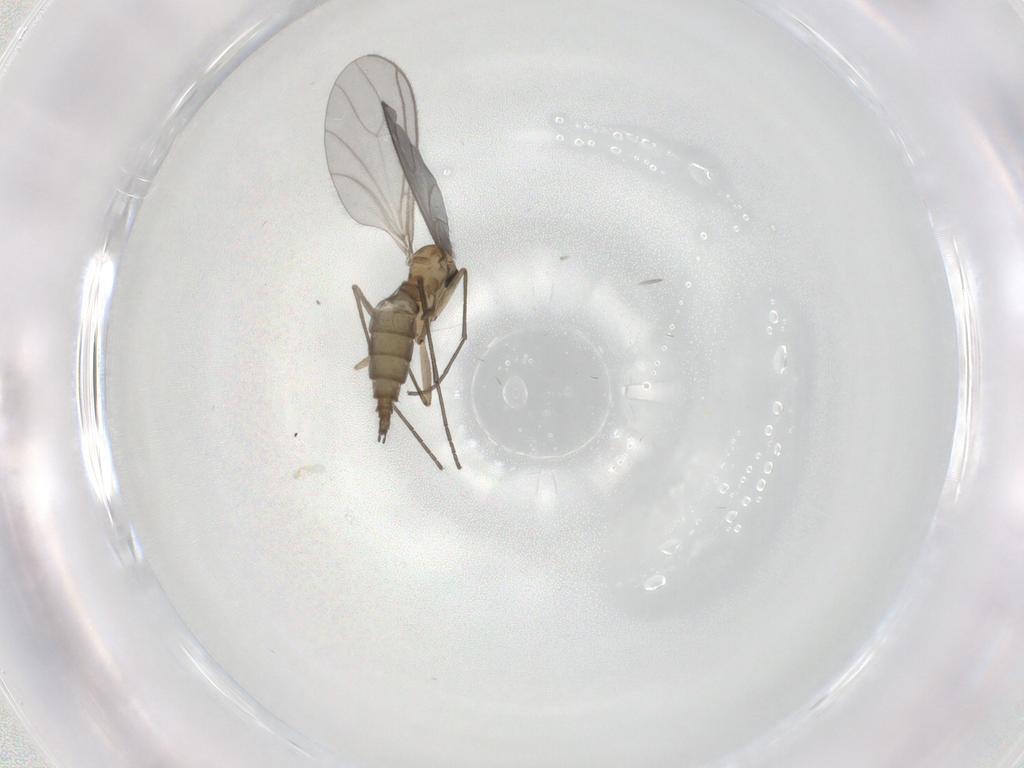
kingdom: Animalia
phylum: Arthropoda
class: Insecta
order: Diptera
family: Sciaridae
